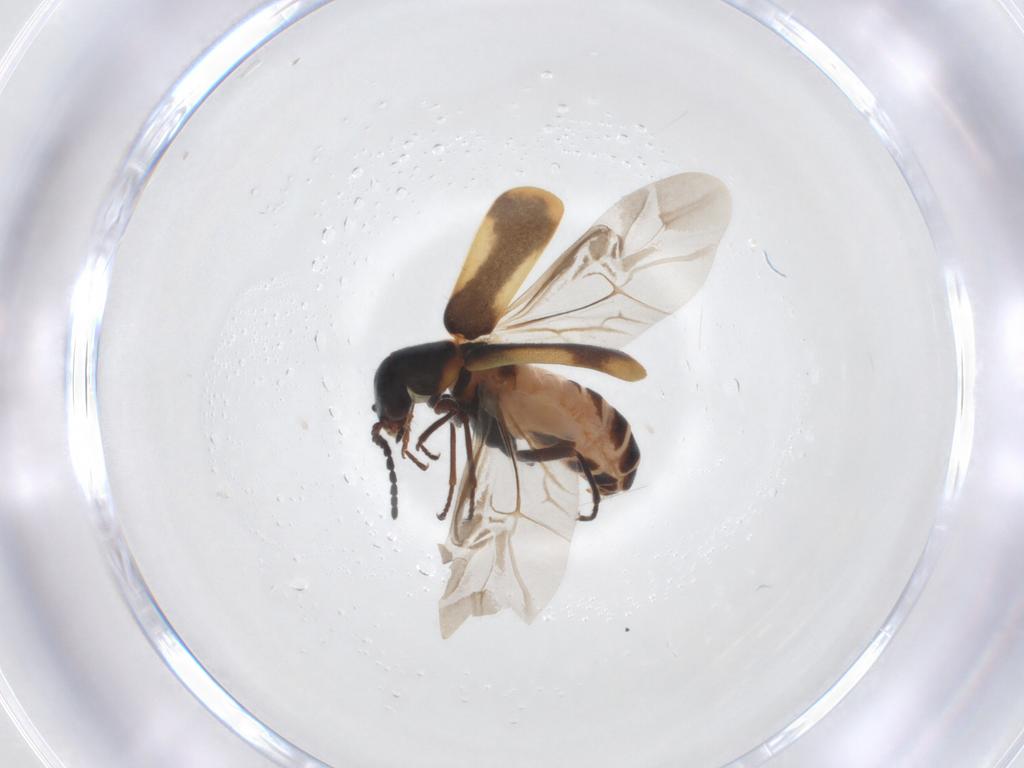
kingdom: Animalia
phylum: Arthropoda
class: Insecta
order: Coleoptera
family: Melyridae
